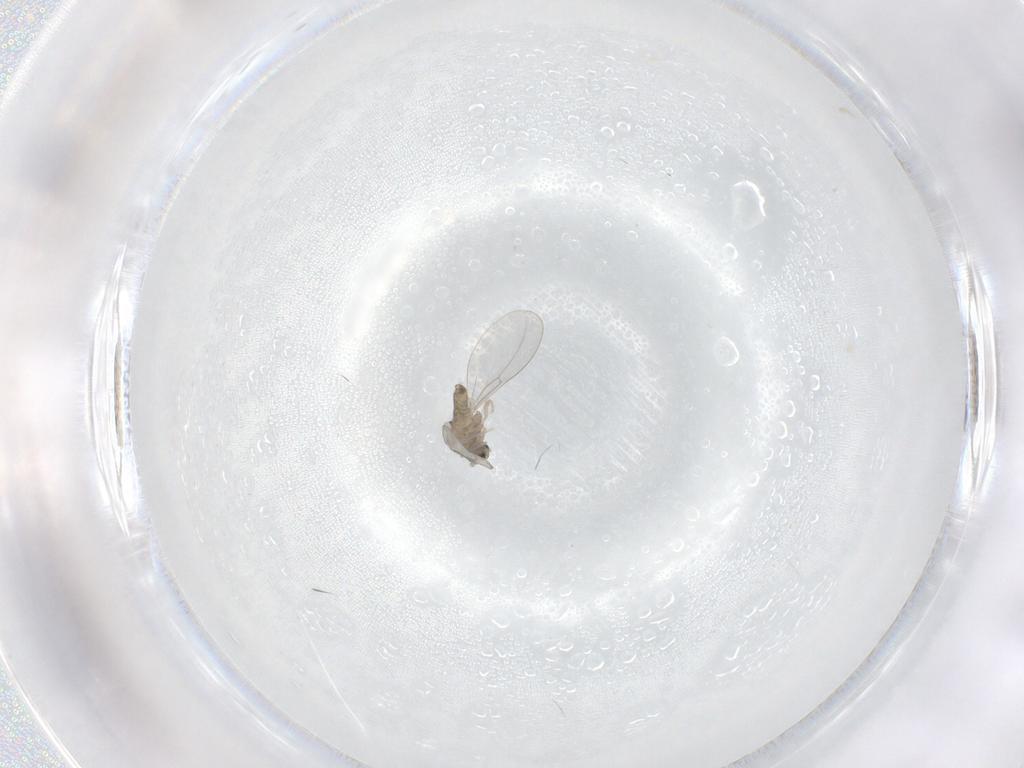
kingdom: Animalia
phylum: Arthropoda
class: Insecta
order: Diptera
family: Cecidomyiidae
